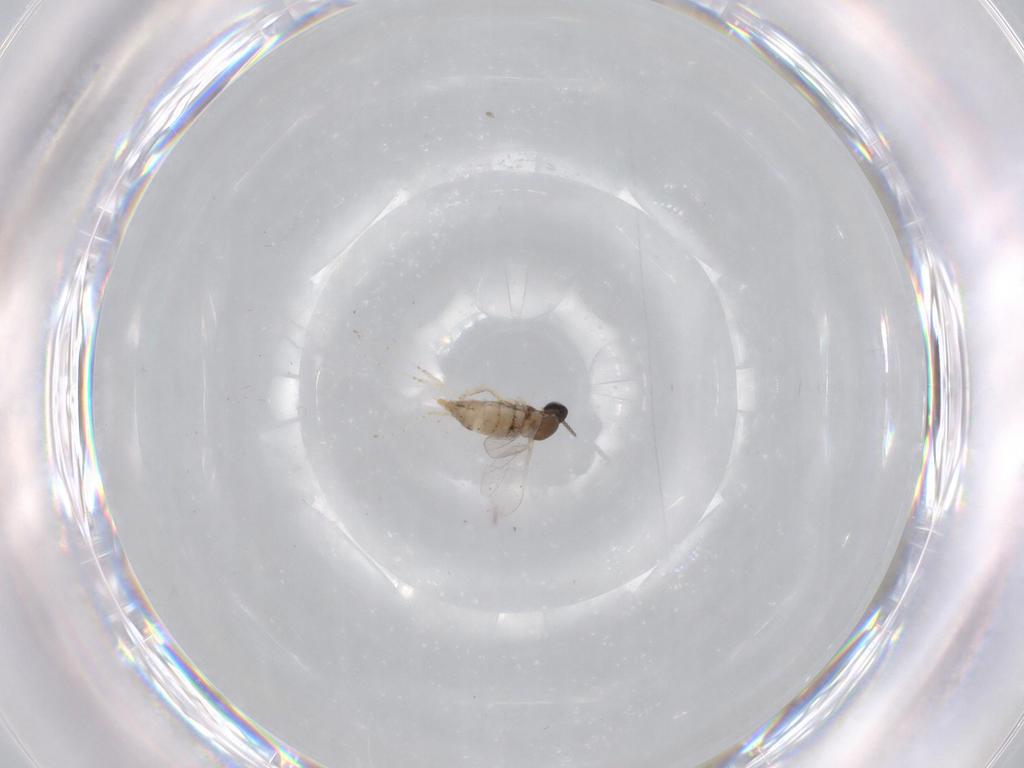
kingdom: Animalia
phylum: Arthropoda
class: Insecta
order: Diptera
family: Cecidomyiidae
